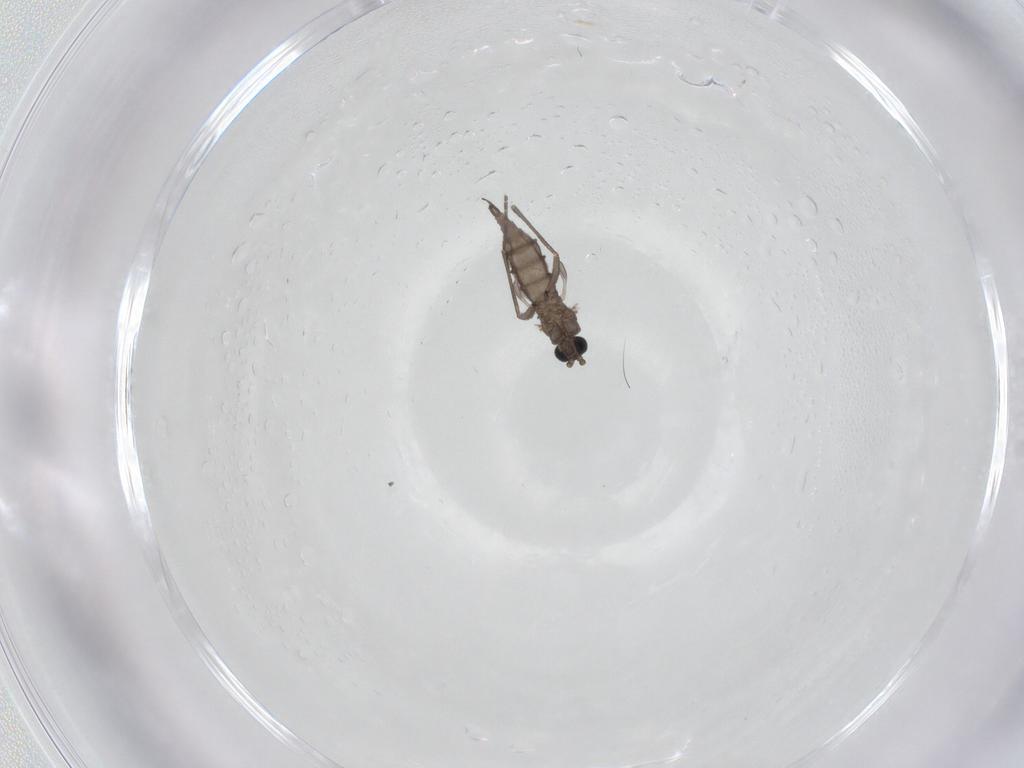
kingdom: Animalia
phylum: Arthropoda
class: Insecta
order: Diptera
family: Sciaridae
